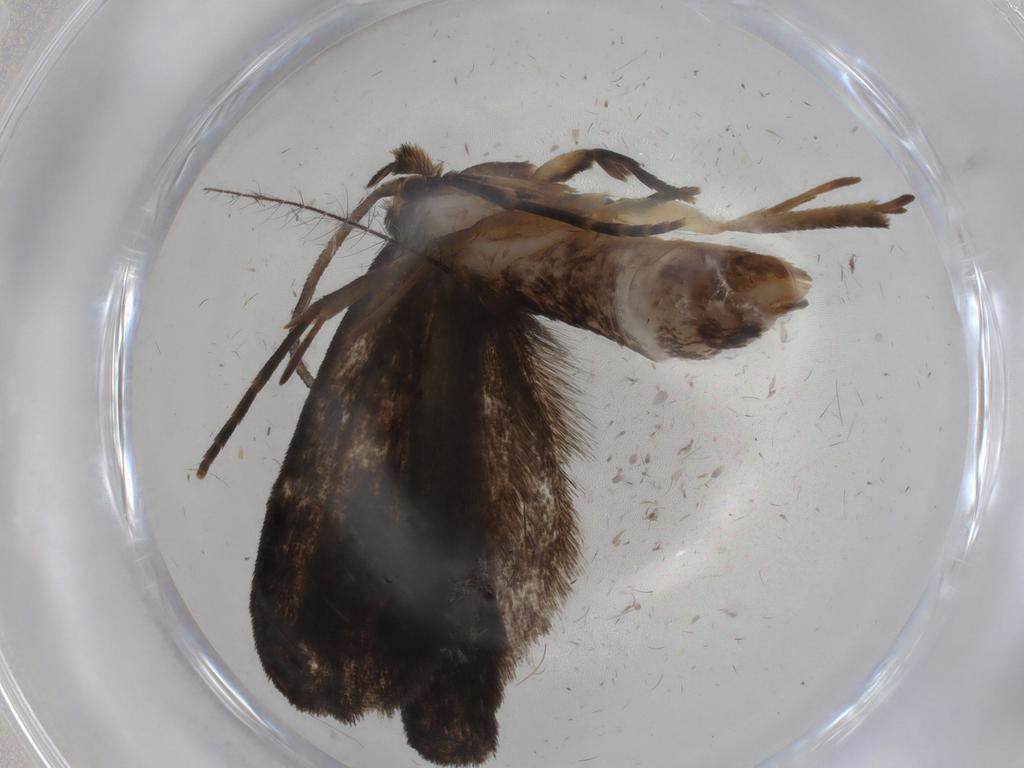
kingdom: Animalia
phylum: Arthropoda
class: Insecta
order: Lepidoptera
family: Dryadaulidae
